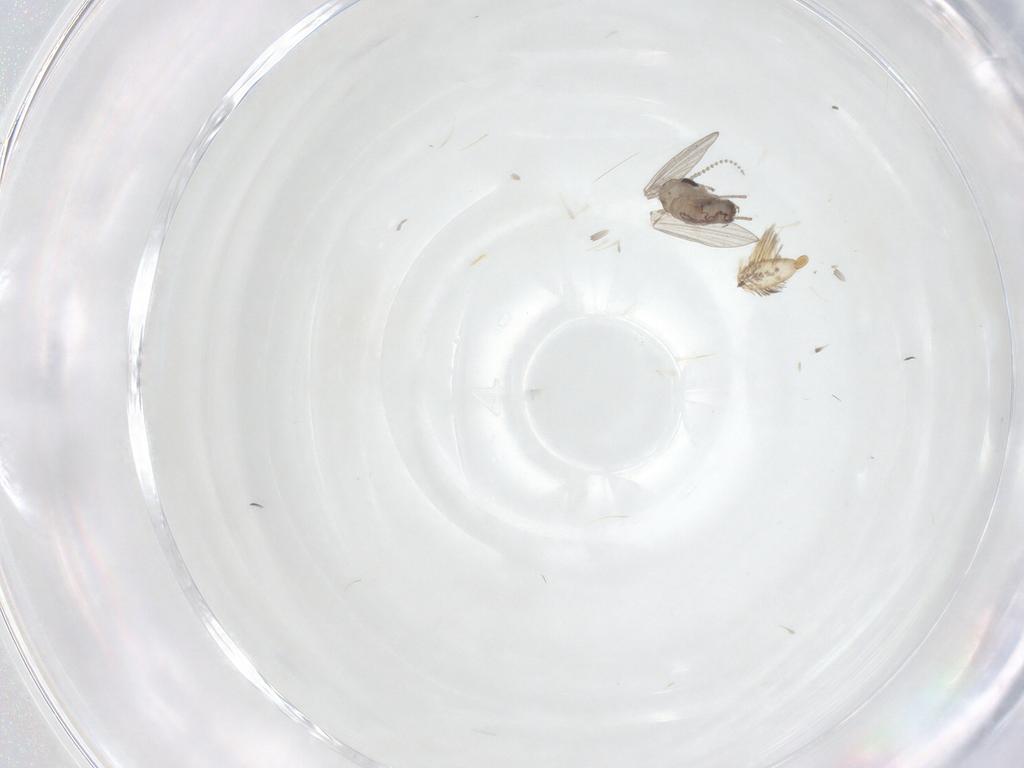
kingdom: Animalia
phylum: Arthropoda
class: Insecta
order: Diptera
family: Psychodidae
